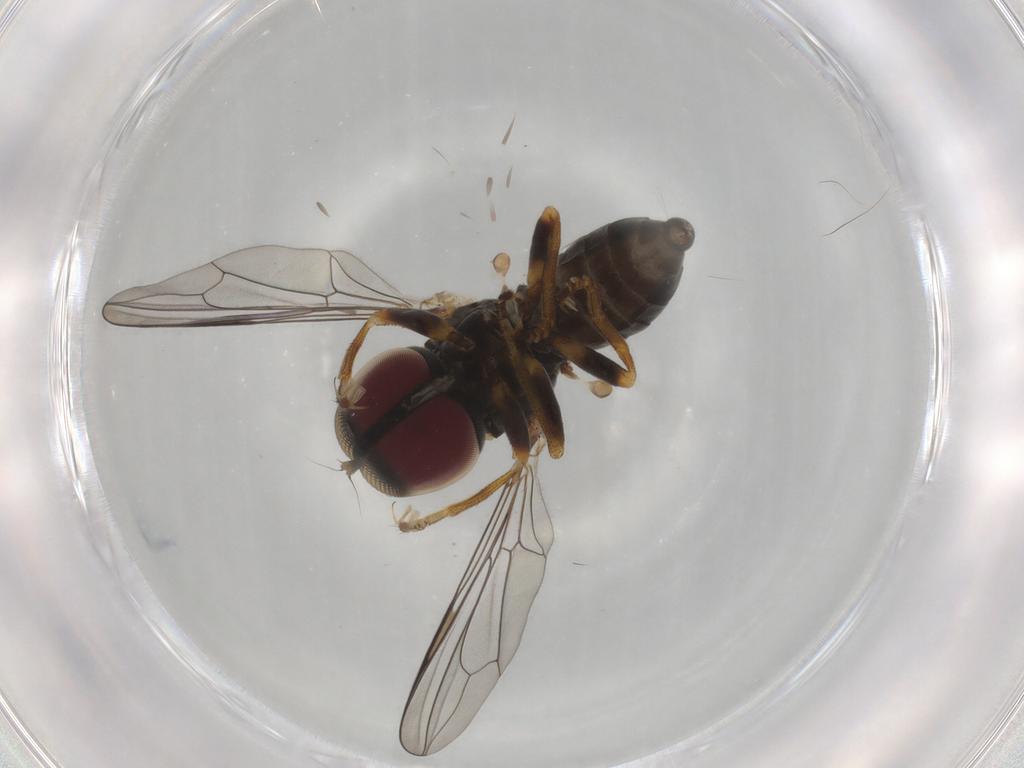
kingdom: Animalia
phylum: Arthropoda
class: Insecta
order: Diptera
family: Pipunculidae
